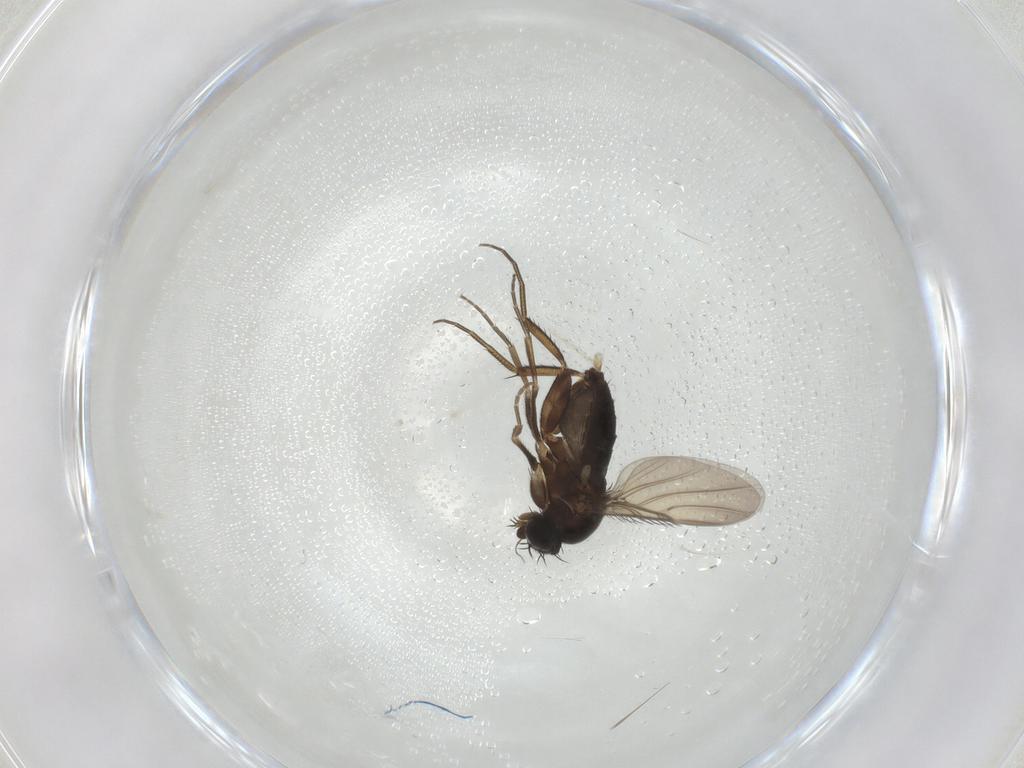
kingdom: Animalia
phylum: Arthropoda
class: Insecta
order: Diptera
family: Phoridae
